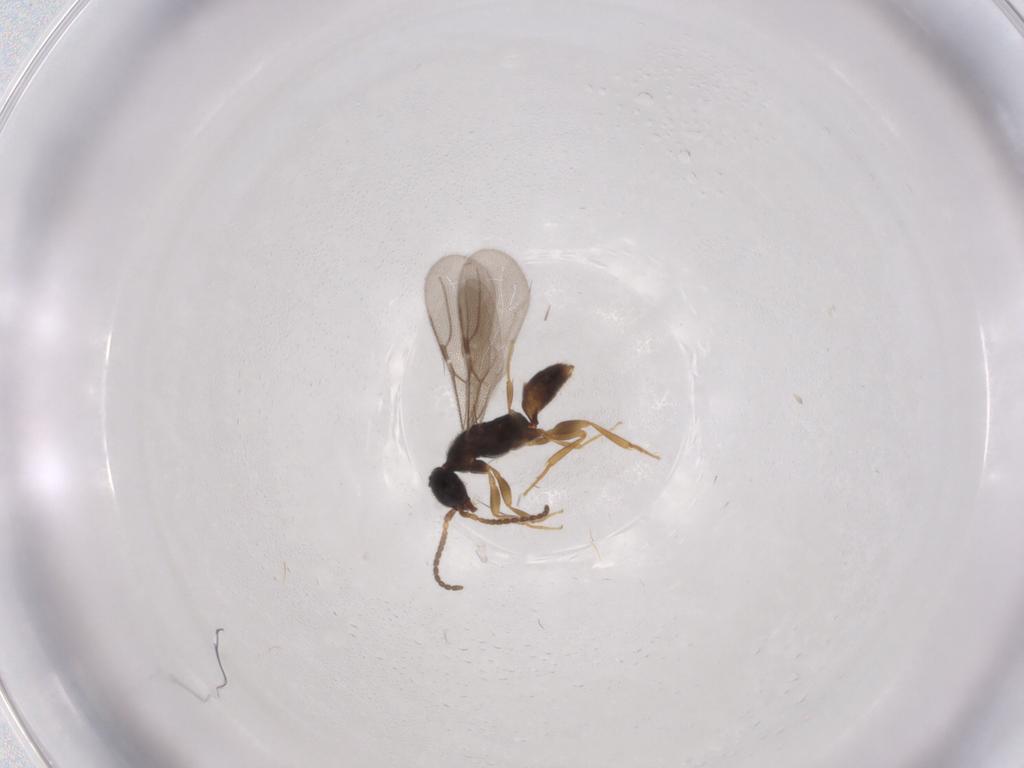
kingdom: Animalia
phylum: Arthropoda
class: Insecta
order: Hymenoptera
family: Bethylidae
